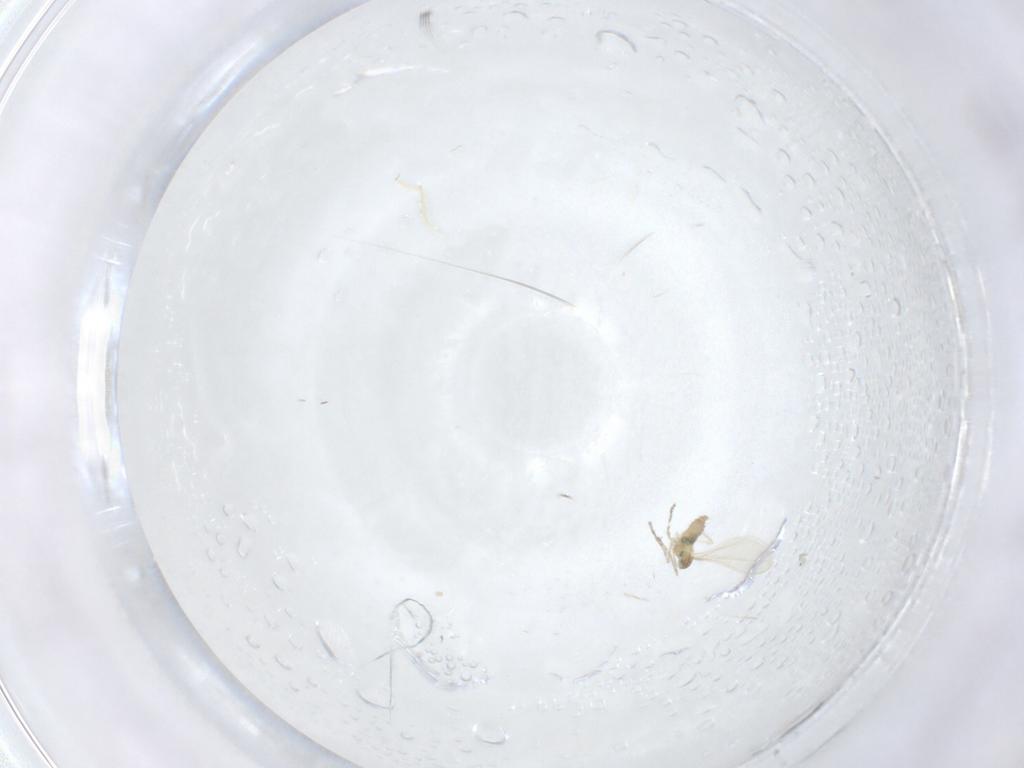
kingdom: Animalia
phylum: Arthropoda
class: Insecta
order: Diptera
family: Cecidomyiidae
